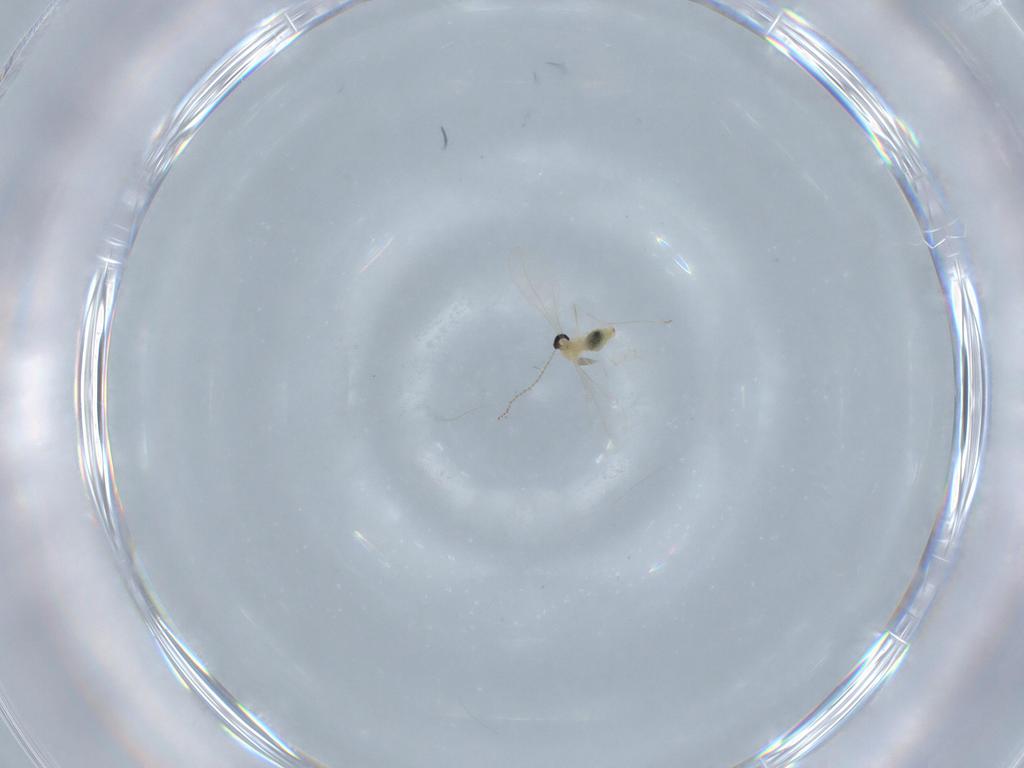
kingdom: Animalia
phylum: Arthropoda
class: Insecta
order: Diptera
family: Cecidomyiidae
